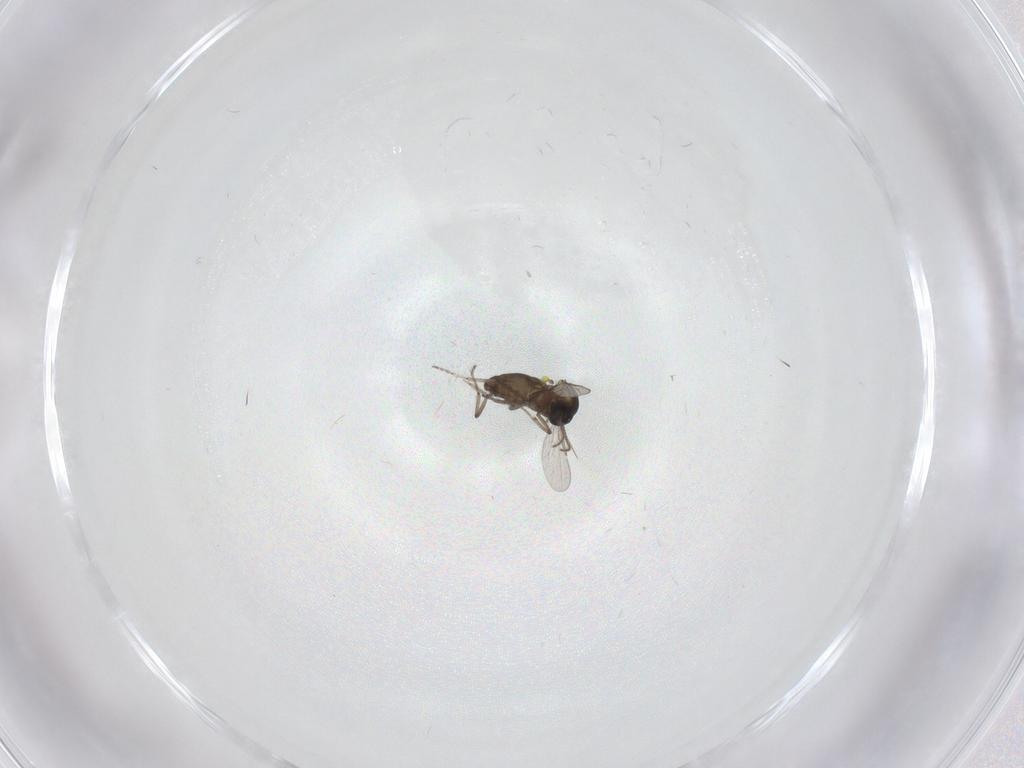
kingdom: Animalia
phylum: Arthropoda
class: Insecta
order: Diptera
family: Ceratopogonidae
